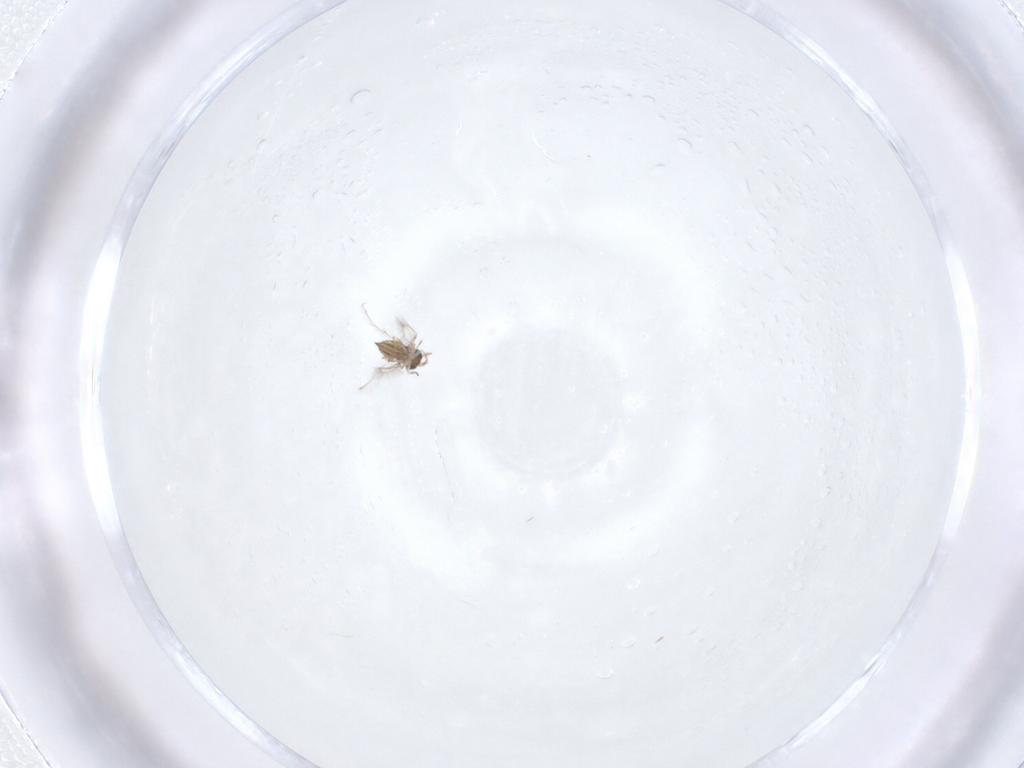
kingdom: Animalia
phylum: Arthropoda
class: Insecta
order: Hymenoptera
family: Trichogrammatidae
